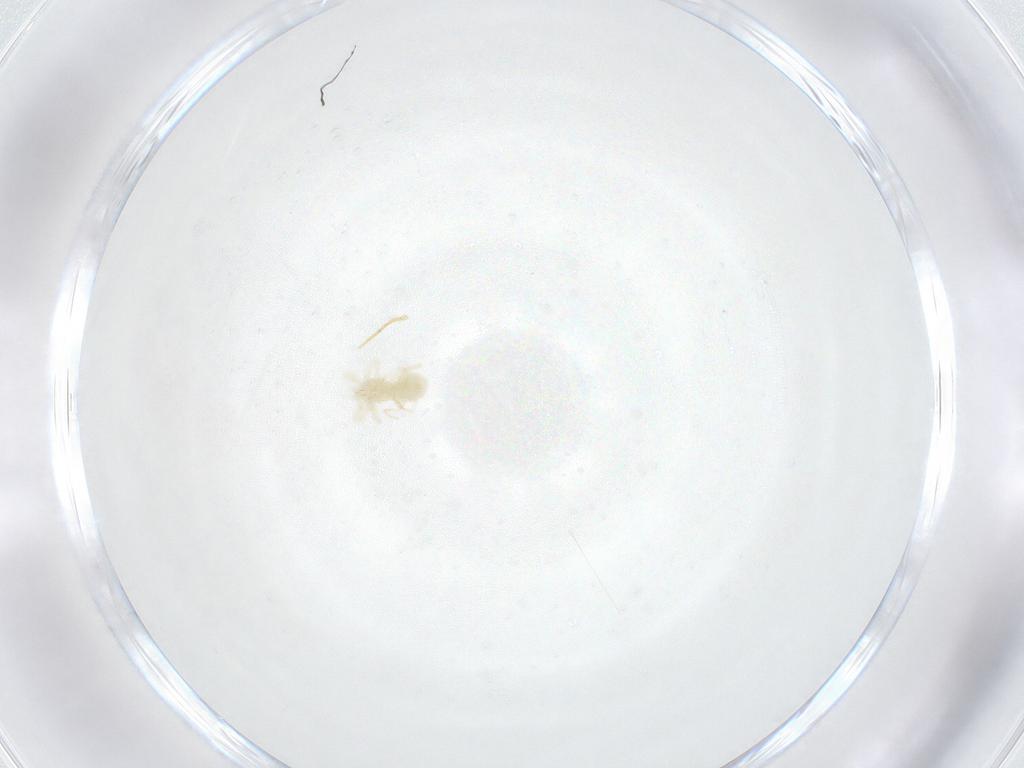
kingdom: Animalia
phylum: Arthropoda
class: Arachnida
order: Trombidiformes
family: Anystidae
